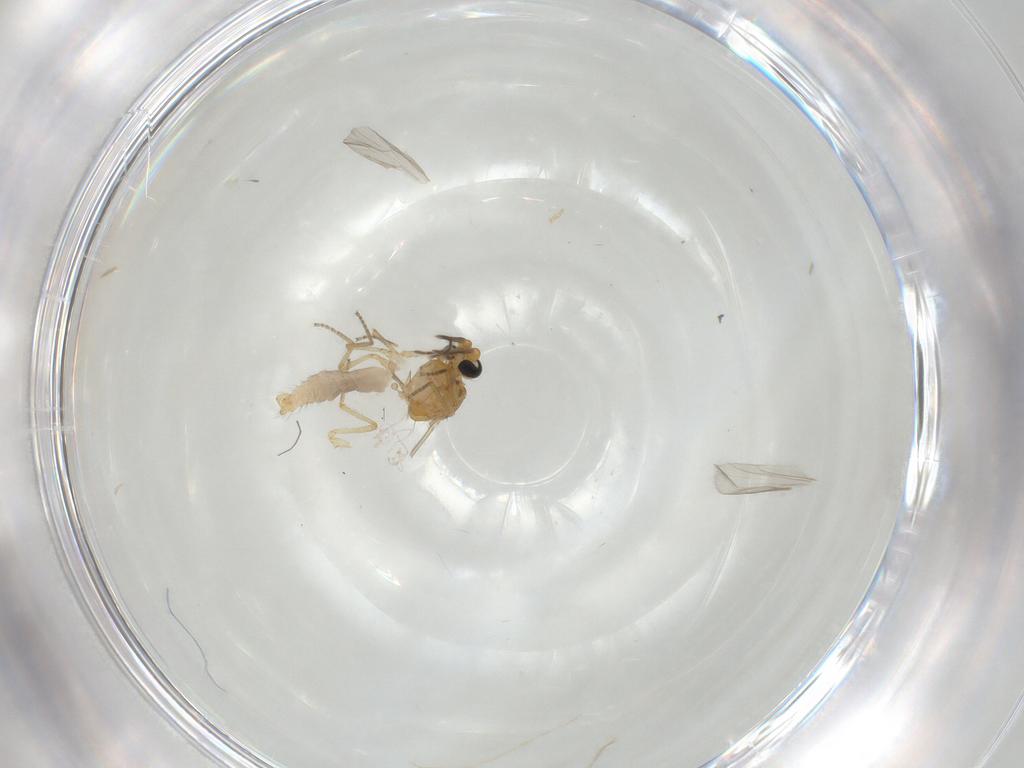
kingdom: Animalia
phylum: Arthropoda
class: Insecta
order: Diptera
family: Ceratopogonidae
